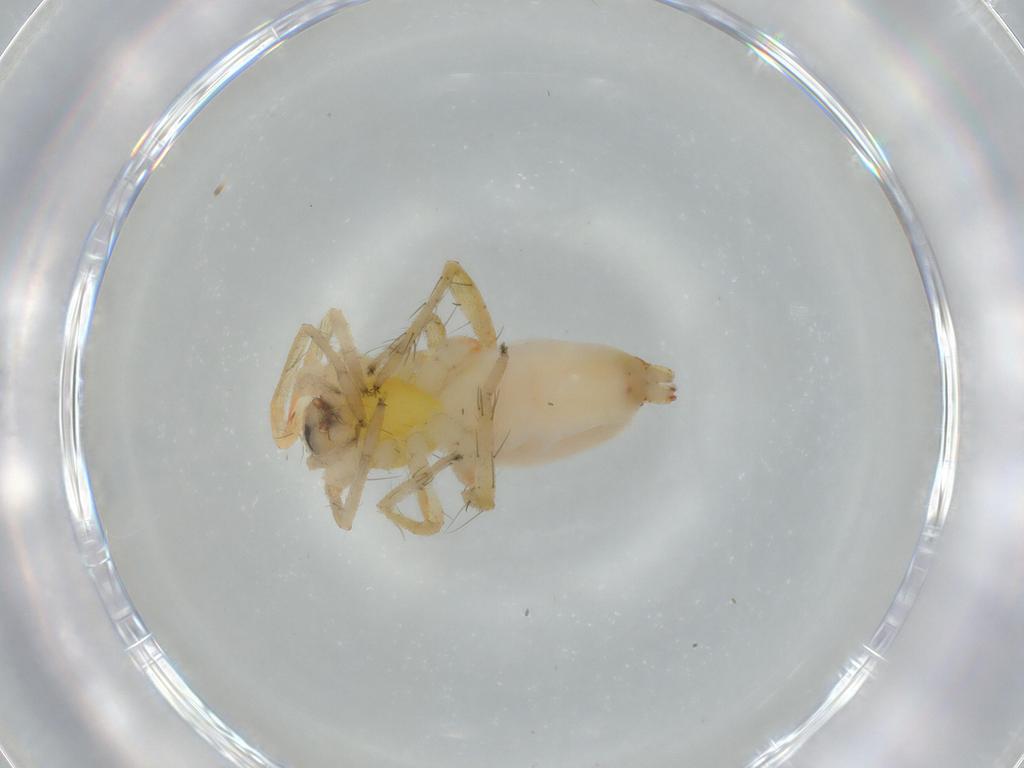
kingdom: Animalia
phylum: Arthropoda
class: Arachnida
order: Araneae
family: Anyphaenidae
